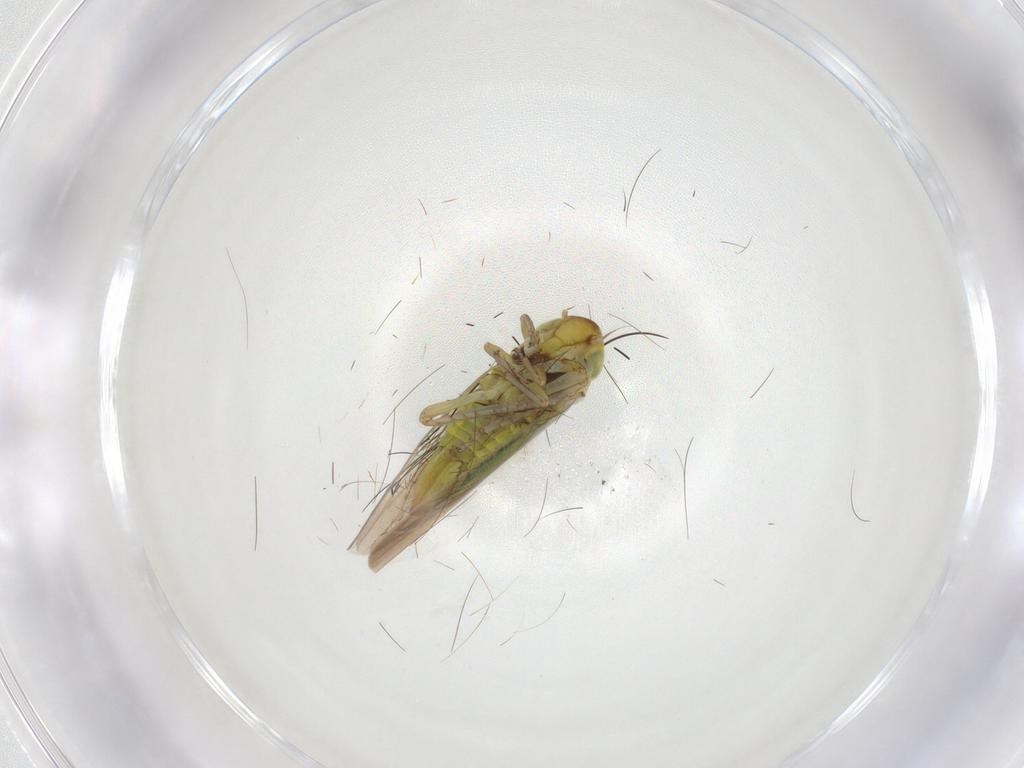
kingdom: Animalia
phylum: Arthropoda
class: Insecta
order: Hemiptera
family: Cicadellidae
